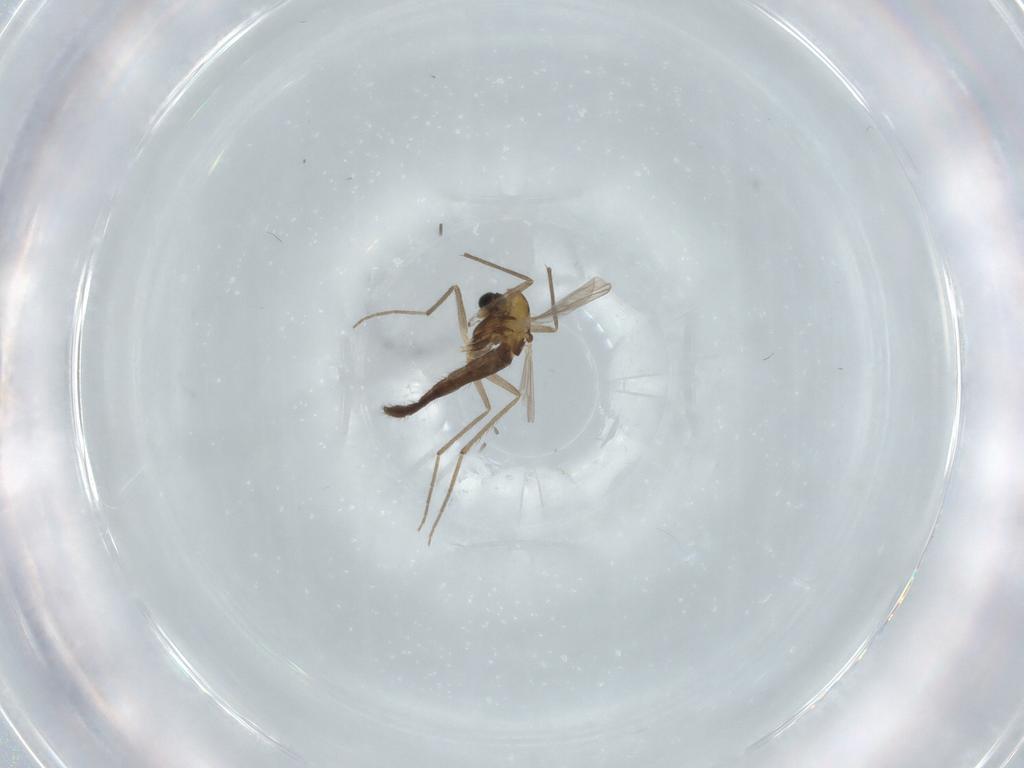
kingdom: Animalia
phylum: Arthropoda
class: Insecta
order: Diptera
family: Chironomidae
